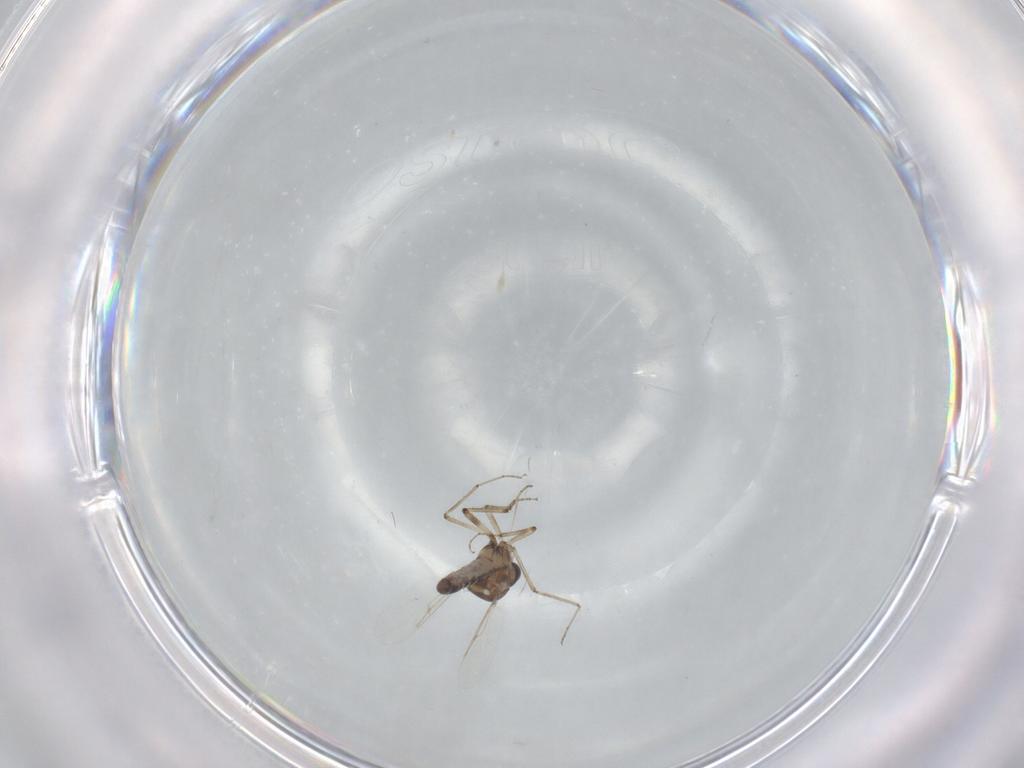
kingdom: Animalia
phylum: Arthropoda
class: Insecta
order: Diptera
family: Ceratopogonidae
